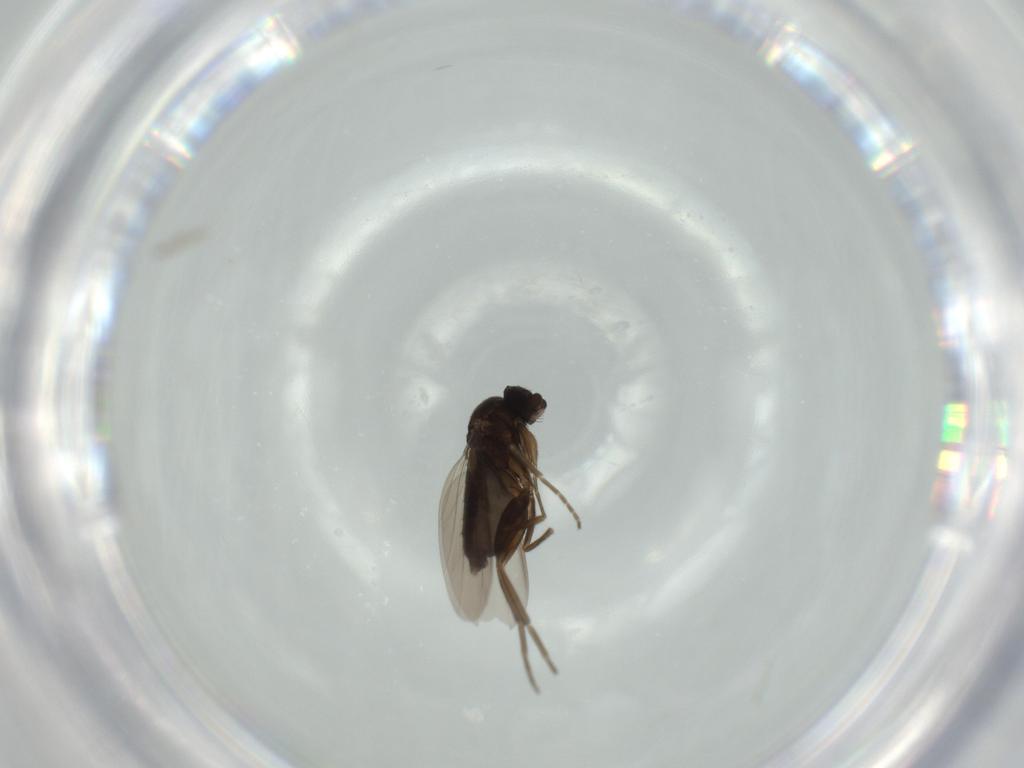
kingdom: Animalia
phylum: Arthropoda
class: Insecta
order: Diptera
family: Phoridae
